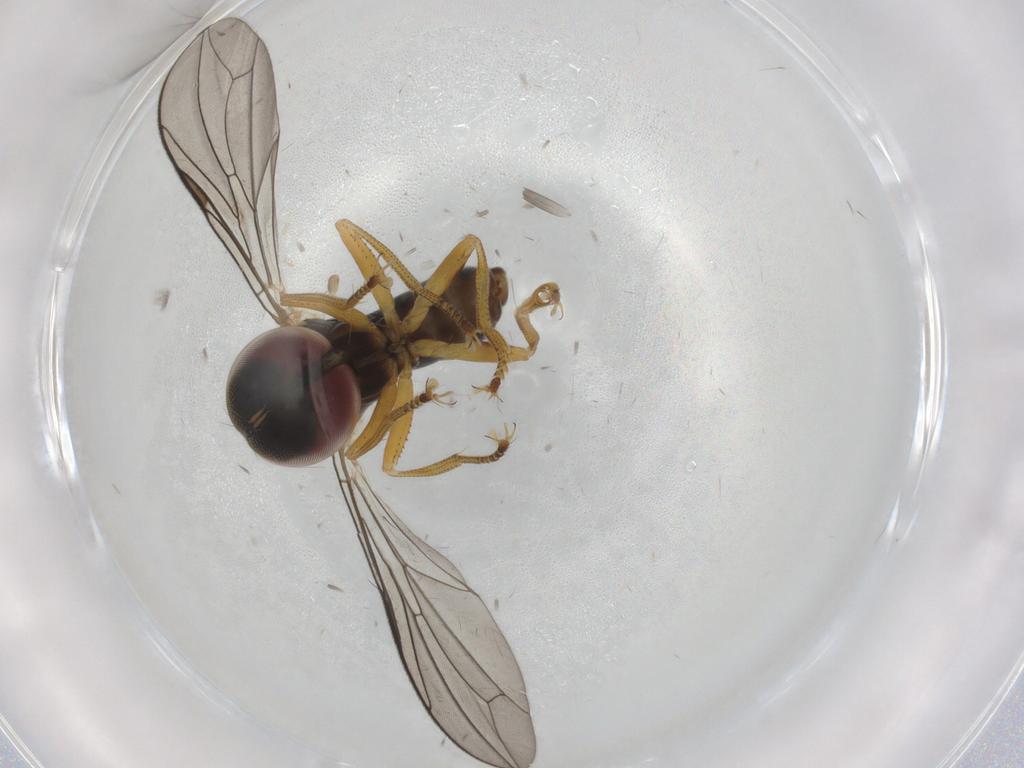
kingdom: Animalia
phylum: Arthropoda
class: Insecta
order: Diptera
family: Pipunculidae
